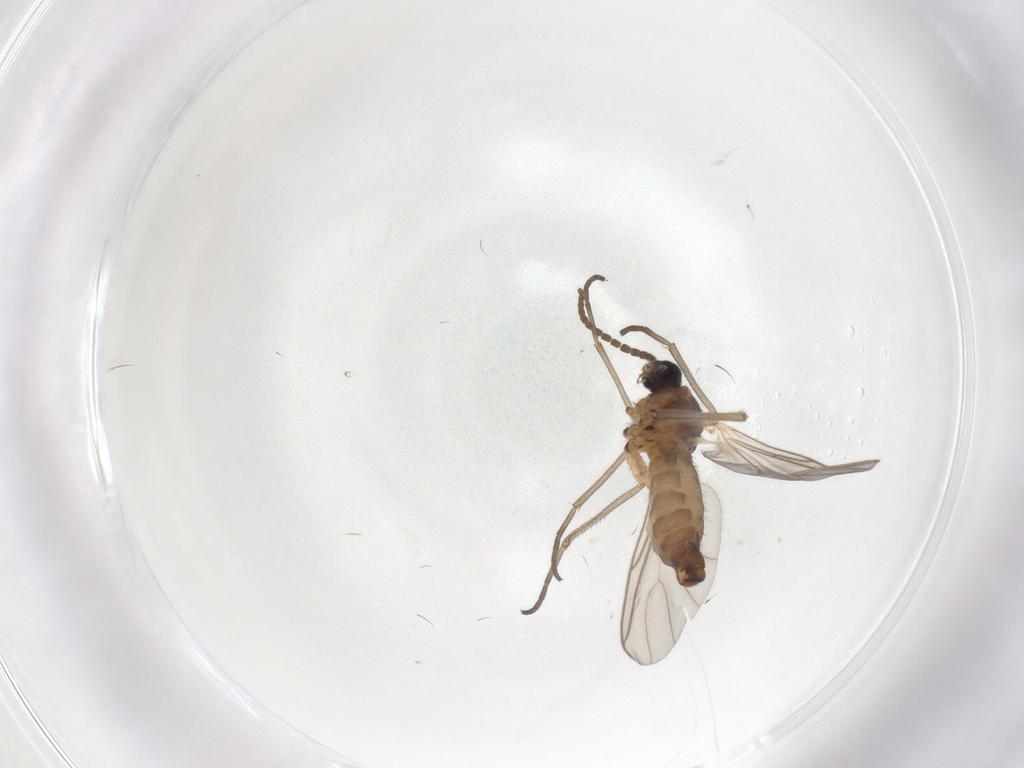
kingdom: Animalia
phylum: Arthropoda
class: Insecta
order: Diptera
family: Sciaridae
